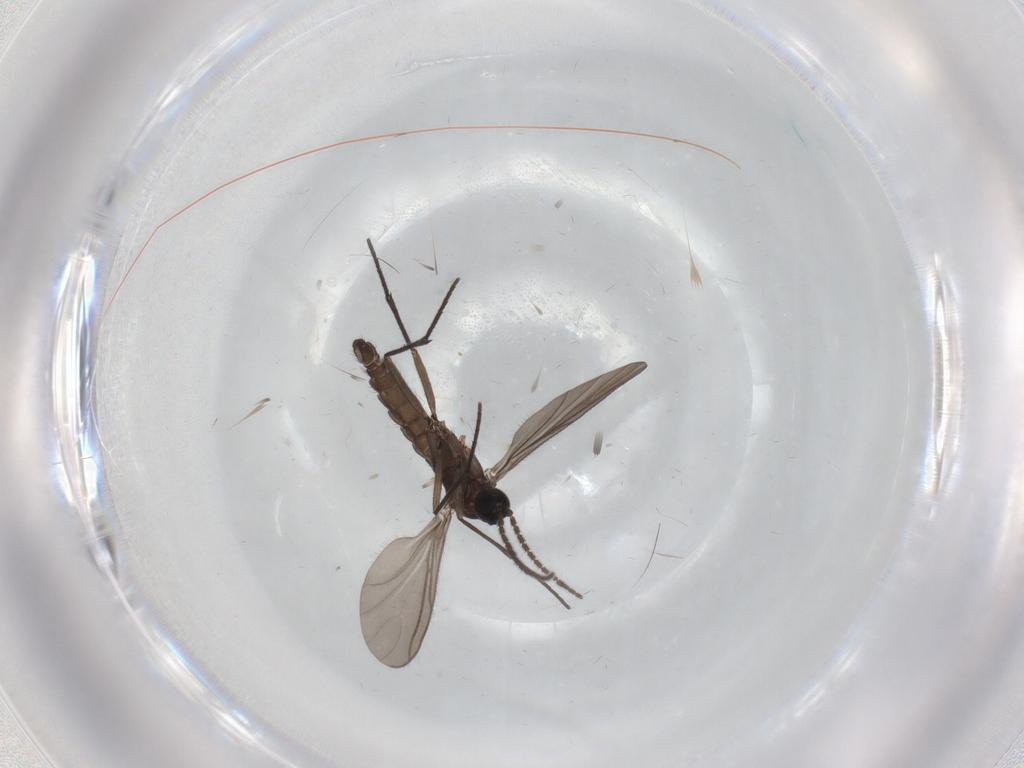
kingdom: Animalia
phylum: Arthropoda
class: Insecta
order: Diptera
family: Sciaridae
